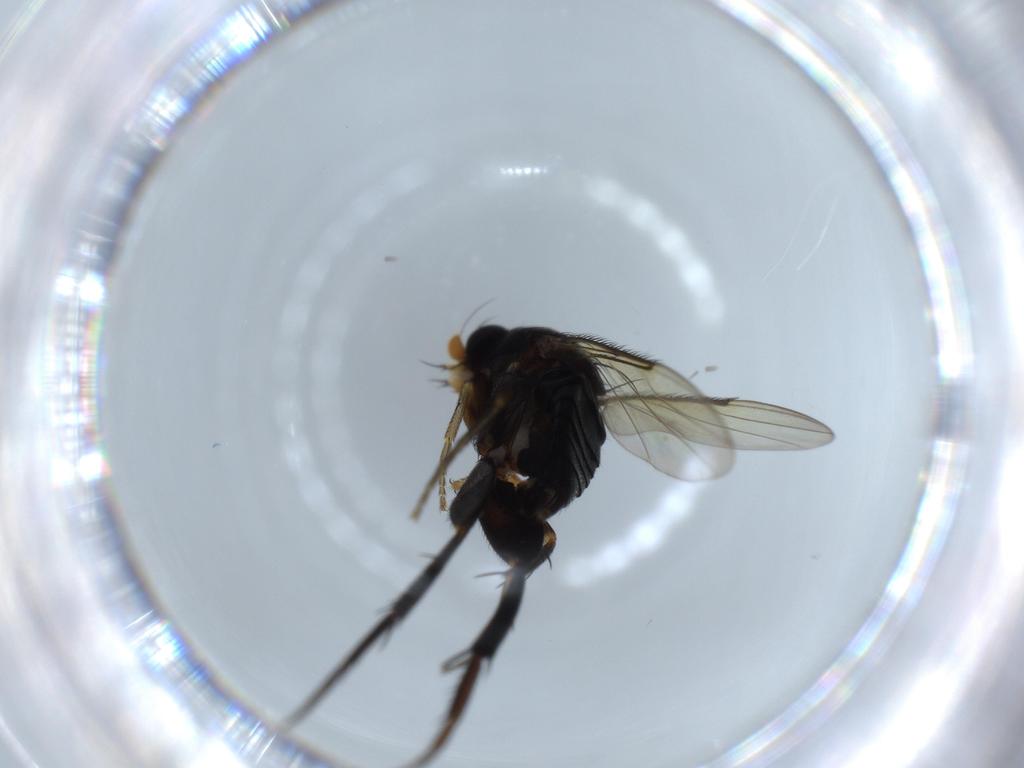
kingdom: Animalia
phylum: Arthropoda
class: Insecta
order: Diptera
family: Phoridae
